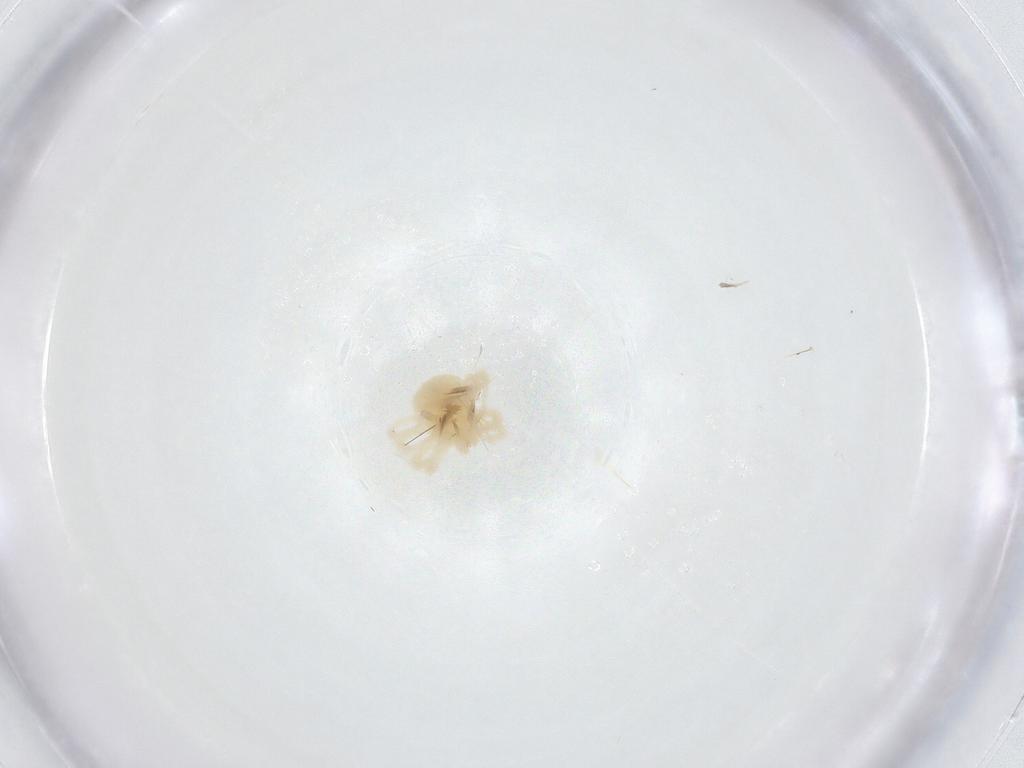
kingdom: Animalia
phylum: Arthropoda
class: Arachnida
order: Trombidiformes
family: Anystidae
